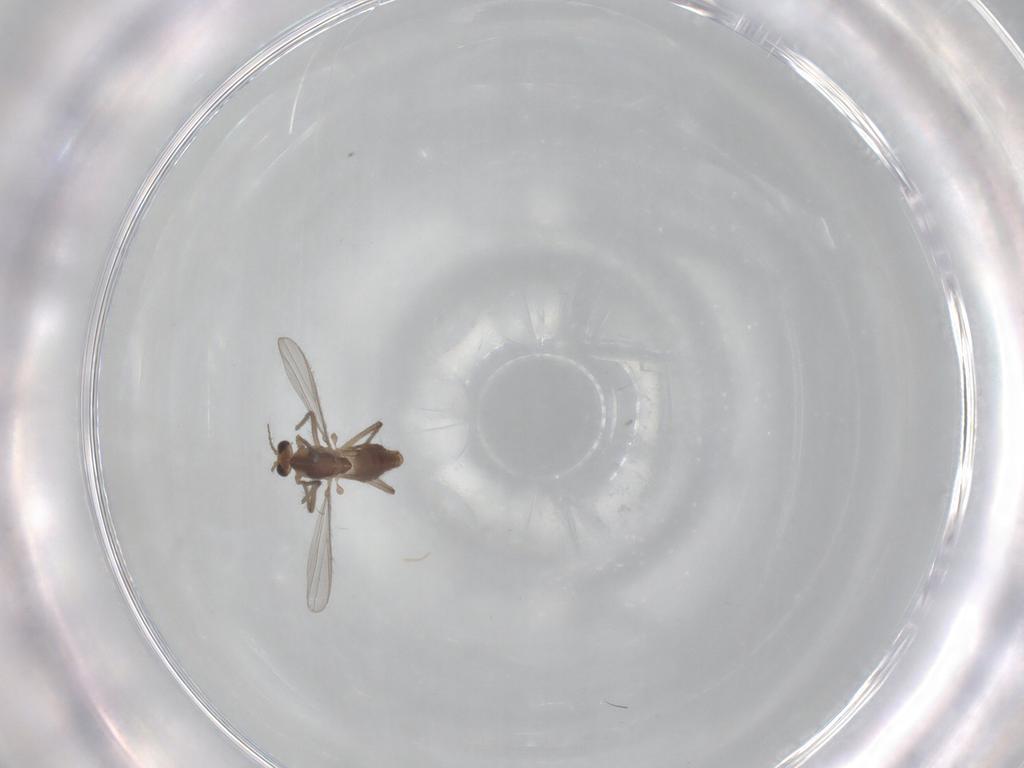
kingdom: Animalia
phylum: Arthropoda
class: Insecta
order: Diptera
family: Chironomidae
